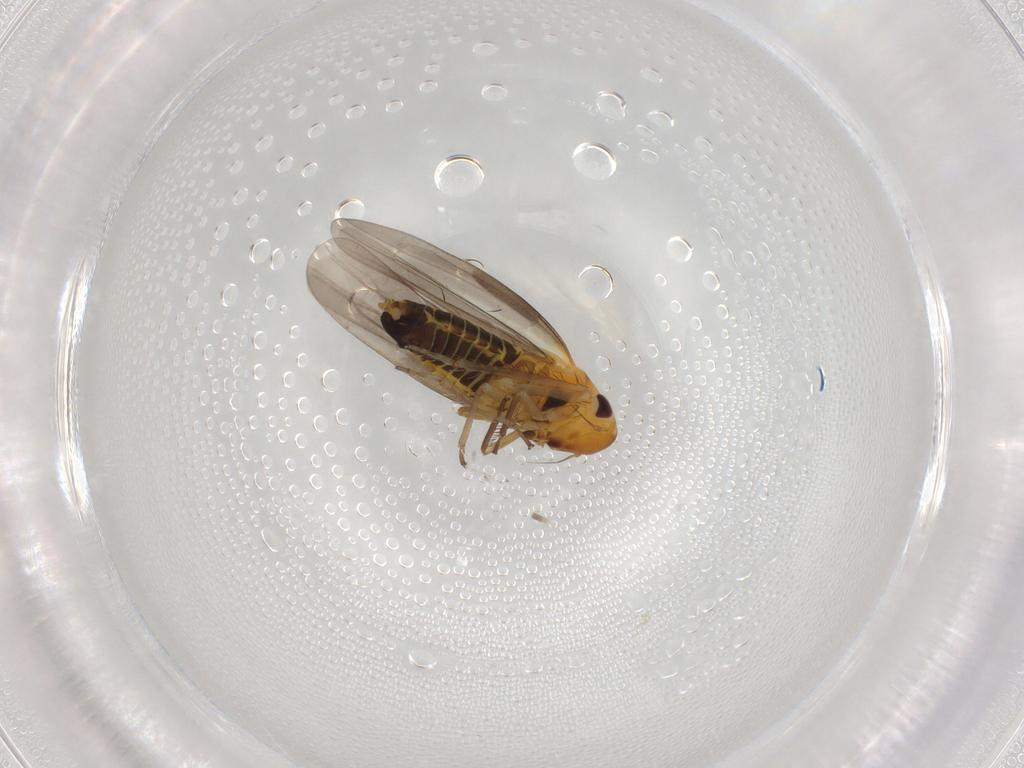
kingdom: Animalia
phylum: Arthropoda
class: Insecta
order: Hemiptera
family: Cicadellidae
